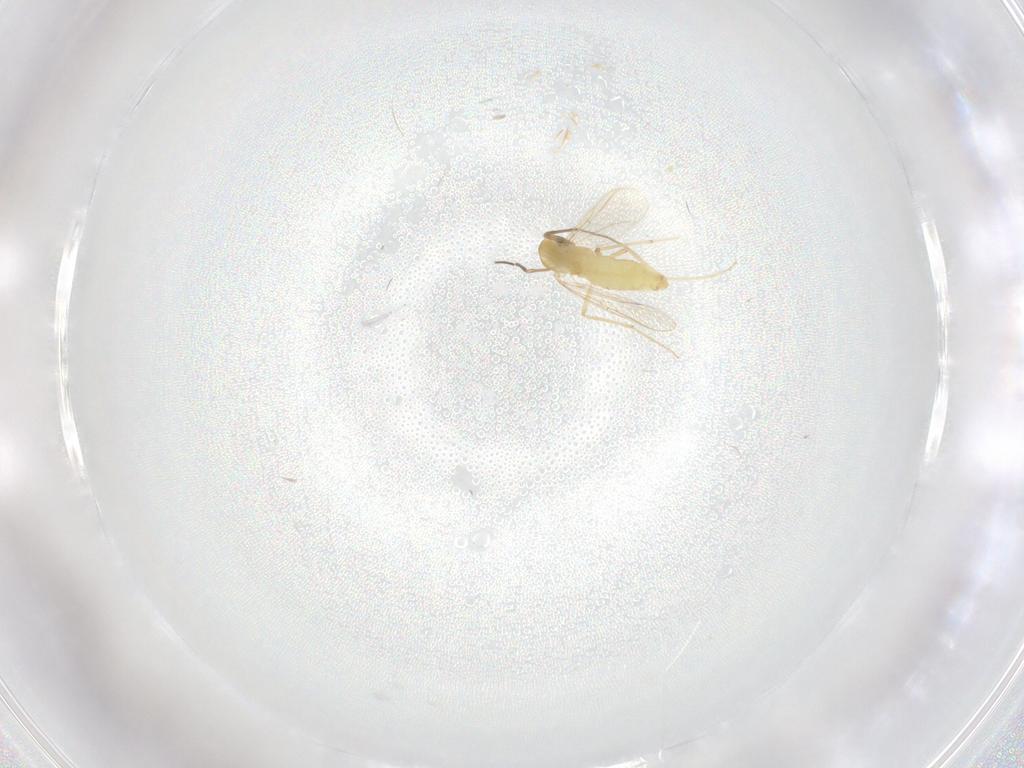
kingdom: Animalia
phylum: Arthropoda
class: Insecta
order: Diptera
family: Chironomidae
